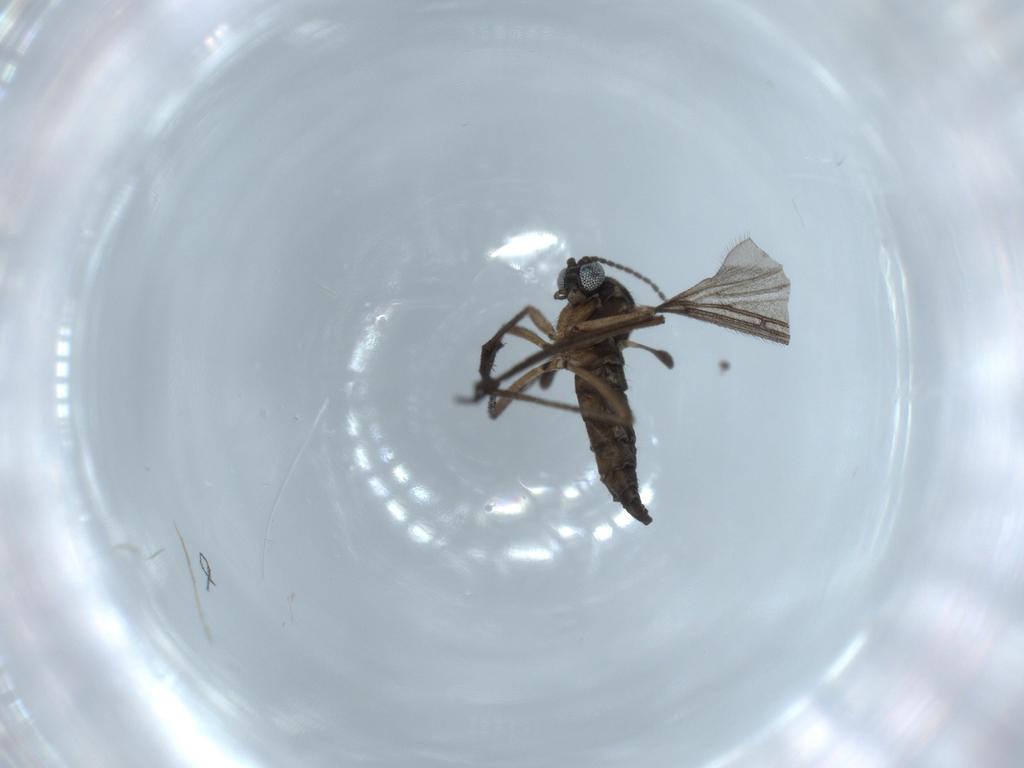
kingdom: Animalia
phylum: Arthropoda
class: Insecta
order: Diptera
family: Sciaridae
